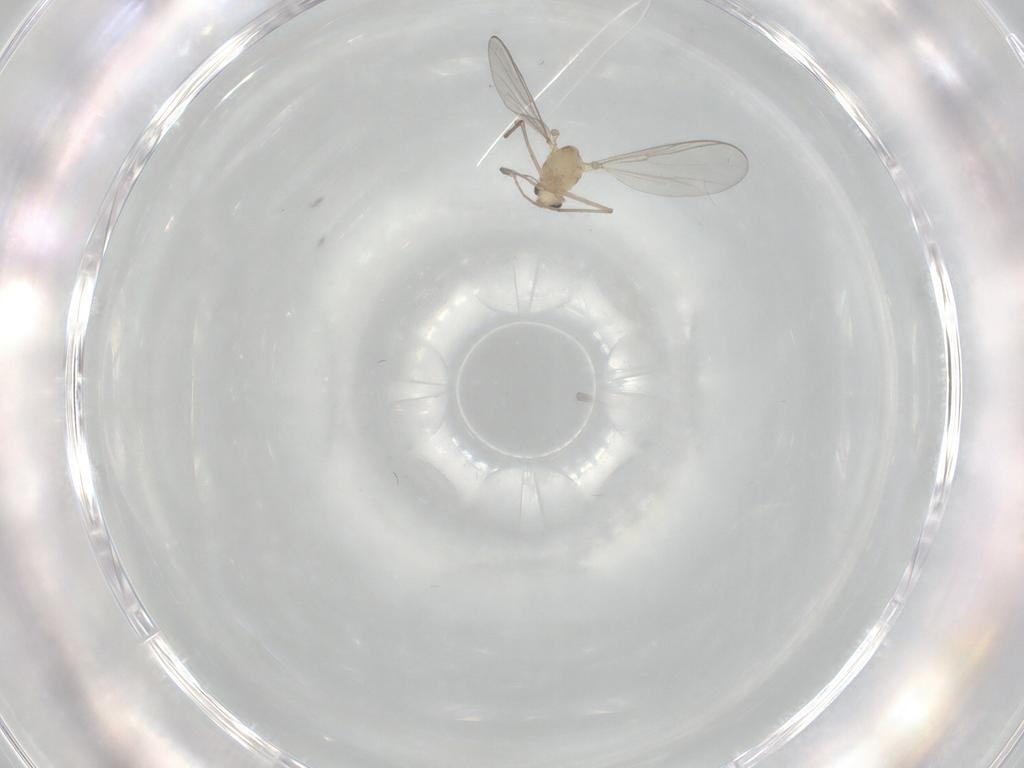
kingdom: Animalia
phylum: Arthropoda
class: Insecta
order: Diptera
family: Chironomidae
